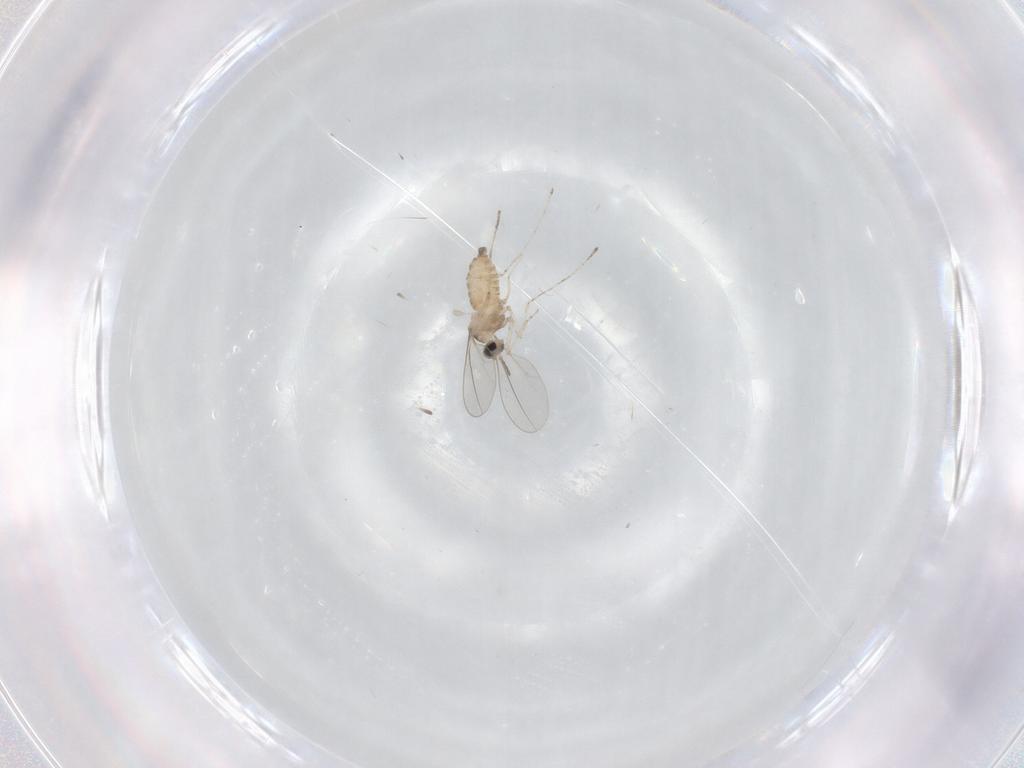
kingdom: Animalia
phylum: Arthropoda
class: Insecta
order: Diptera
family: Cecidomyiidae
